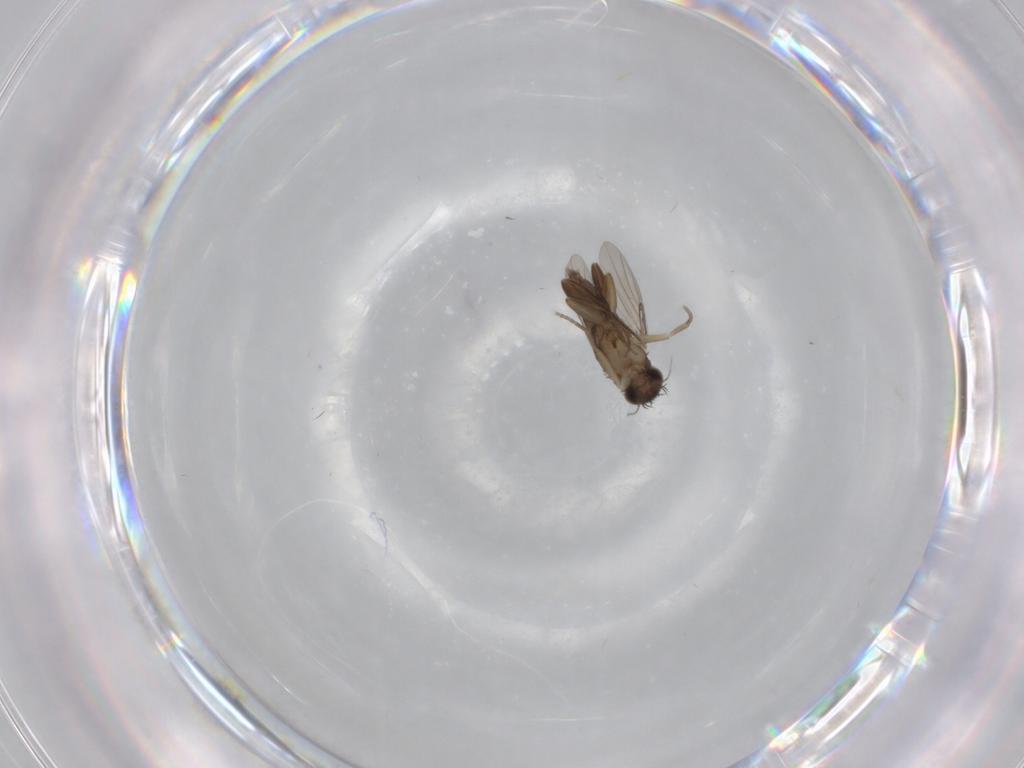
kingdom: Animalia
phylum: Arthropoda
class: Insecta
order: Diptera
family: Phoridae
